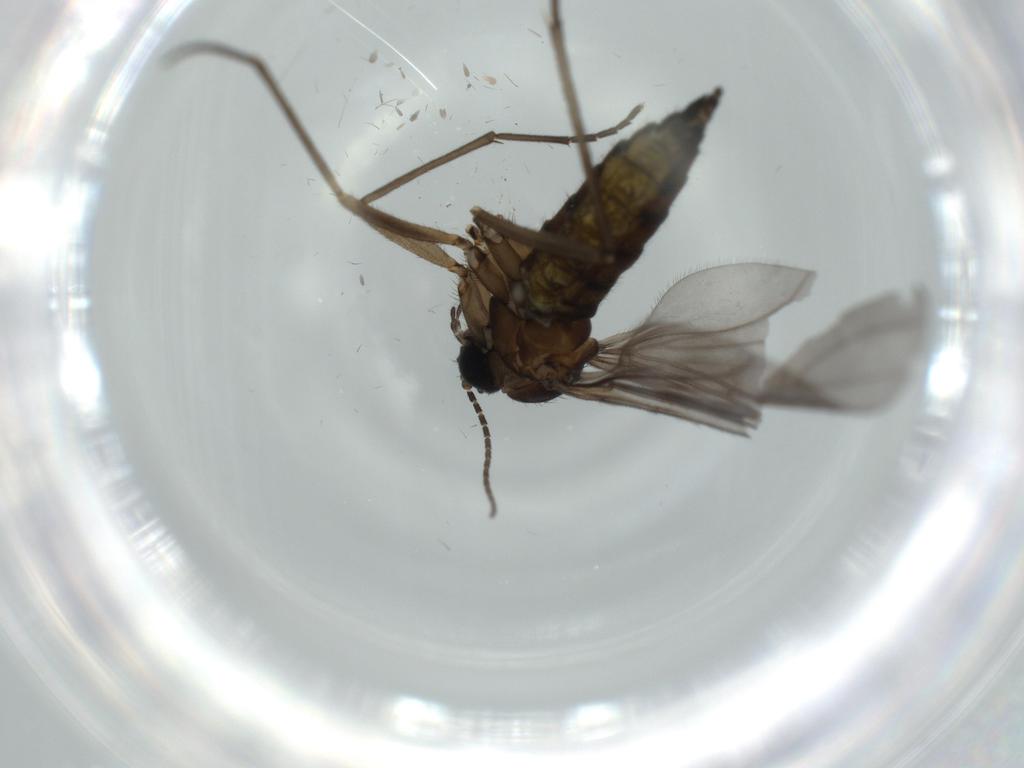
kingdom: Animalia
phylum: Arthropoda
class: Insecta
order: Diptera
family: Sciaridae
